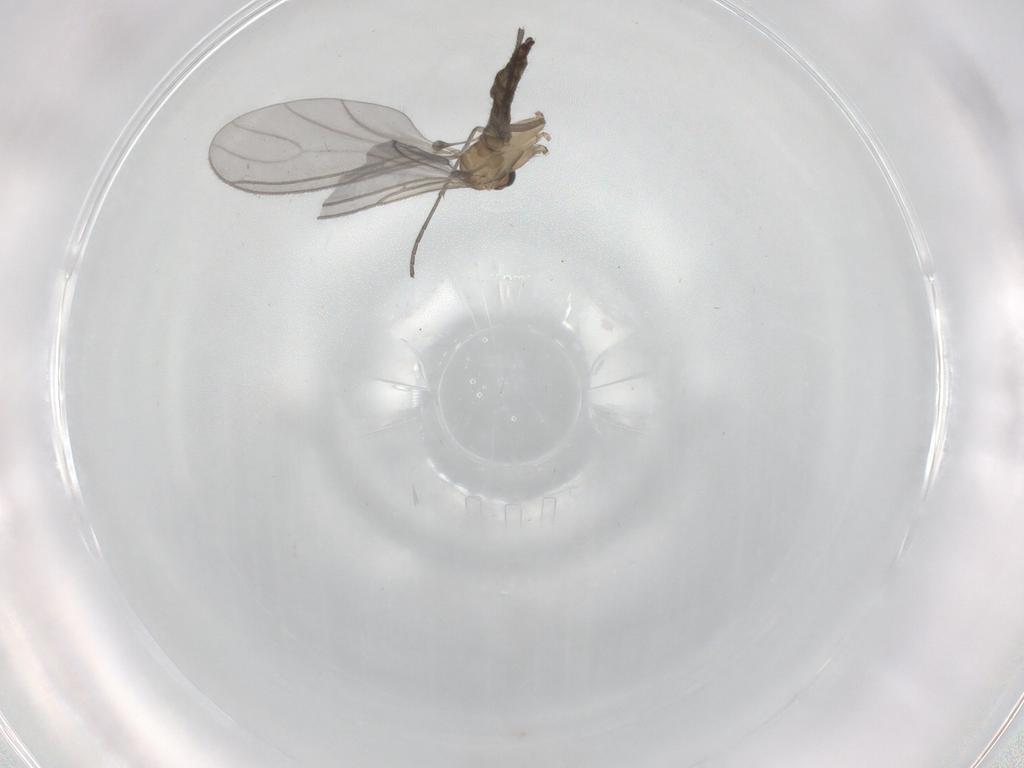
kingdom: Animalia
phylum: Arthropoda
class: Insecta
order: Diptera
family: Sciaridae
